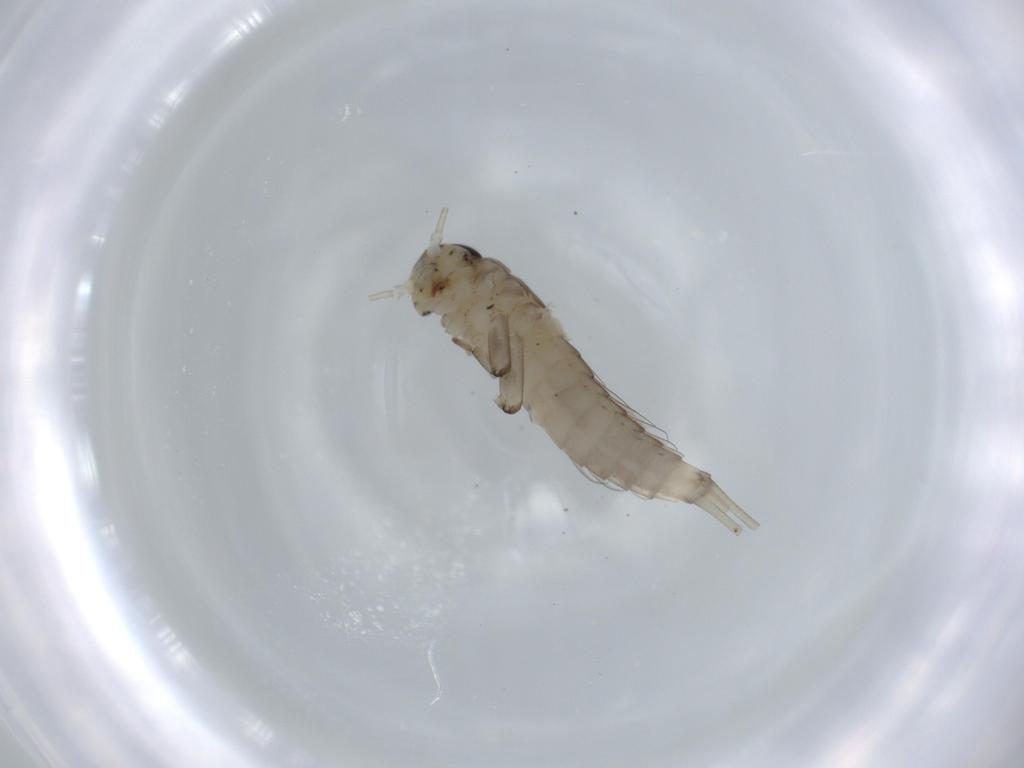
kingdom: Animalia
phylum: Arthropoda
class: Insecta
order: Ephemeroptera
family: Baetidae
